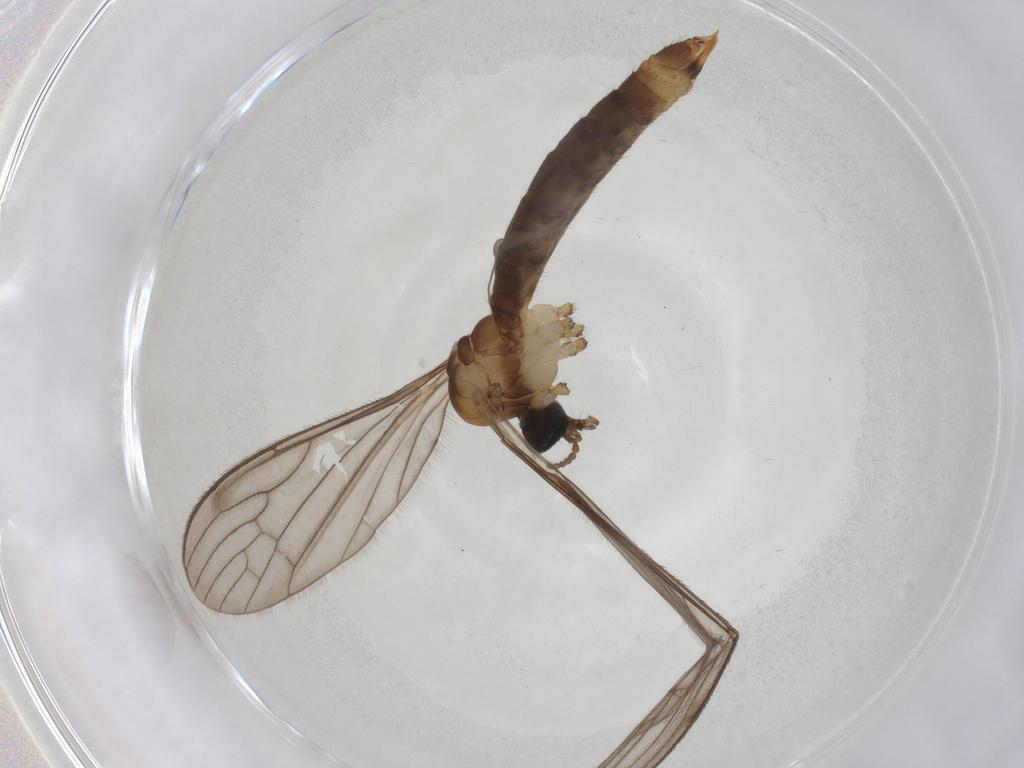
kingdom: Animalia
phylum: Arthropoda
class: Insecta
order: Diptera
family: Limoniidae
